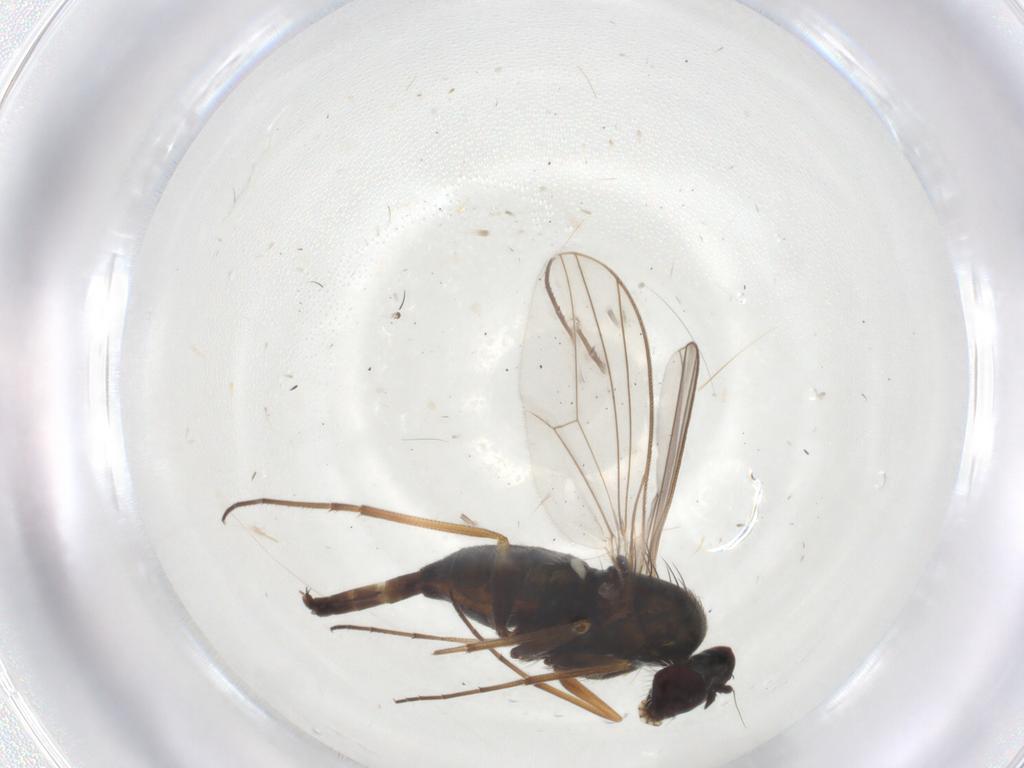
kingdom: Animalia
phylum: Arthropoda
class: Insecta
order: Diptera
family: Dolichopodidae
